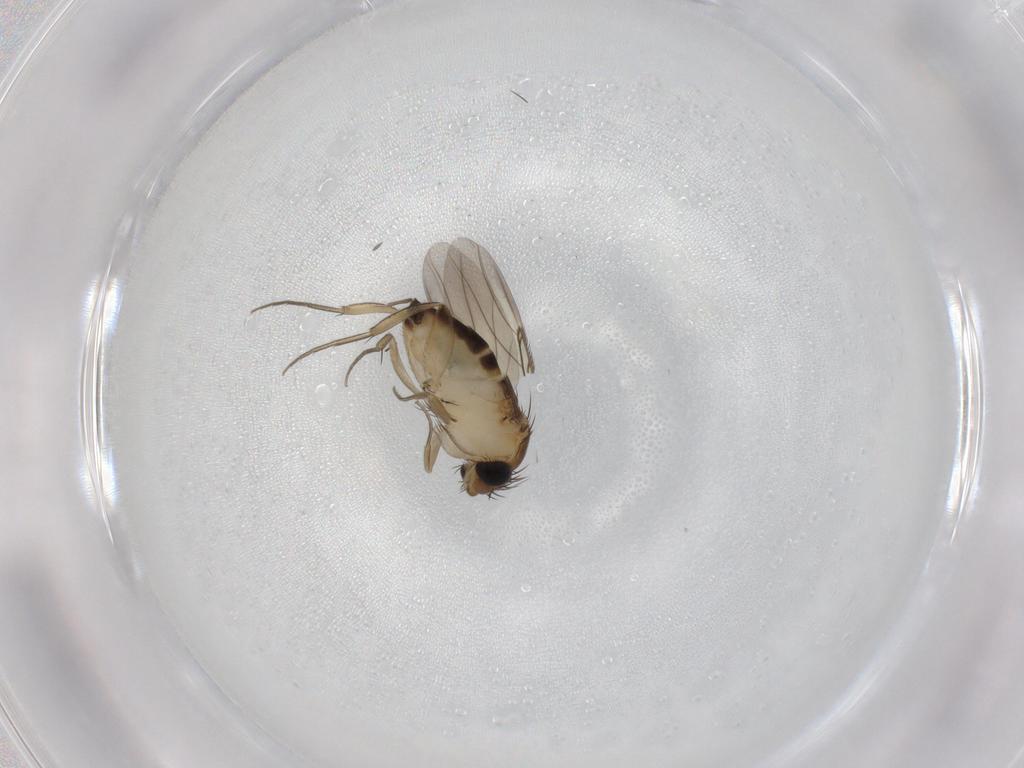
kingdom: Animalia
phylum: Arthropoda
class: Insecta
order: Diptera
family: Phoridae
